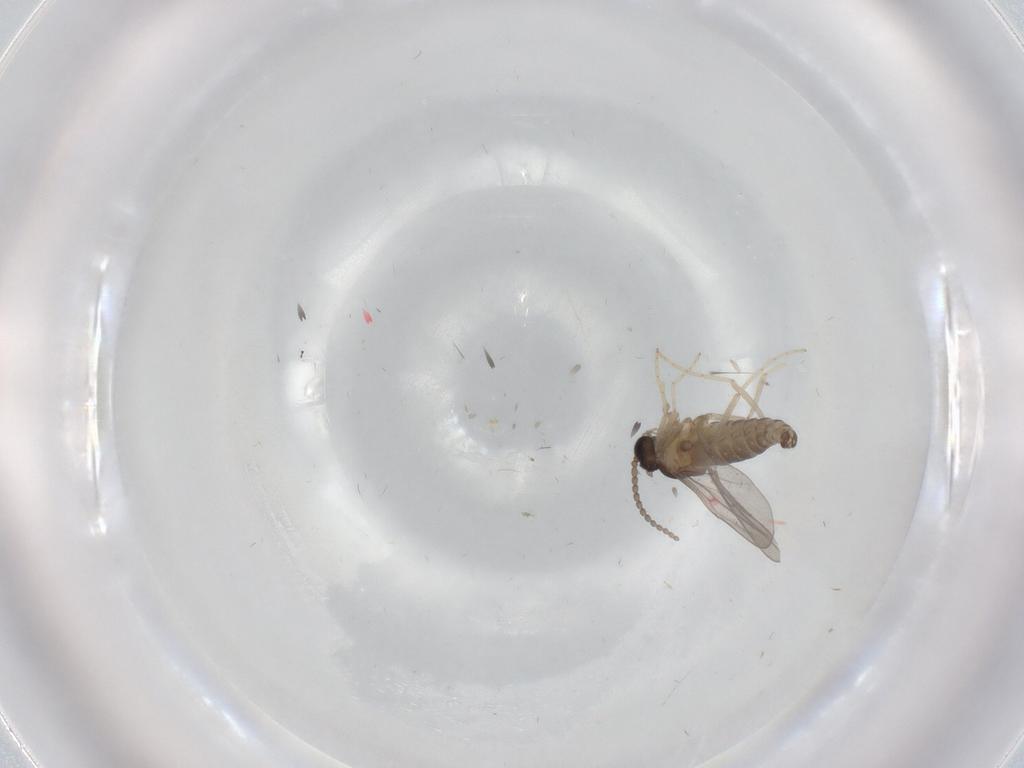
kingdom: Animalia
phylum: Arthropoda
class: Insecta
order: Diptera
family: Cecidomyiidae
